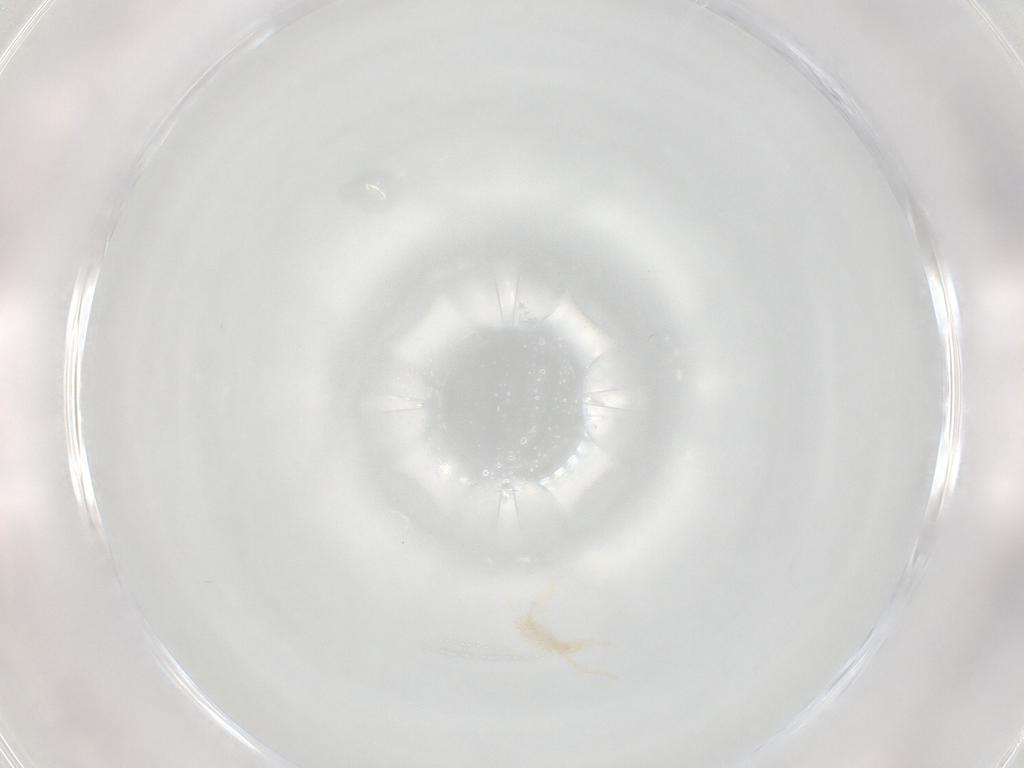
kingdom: Animalia
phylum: Arthropoda
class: Arachnida
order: Trombidiformes
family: Erythraeidae
